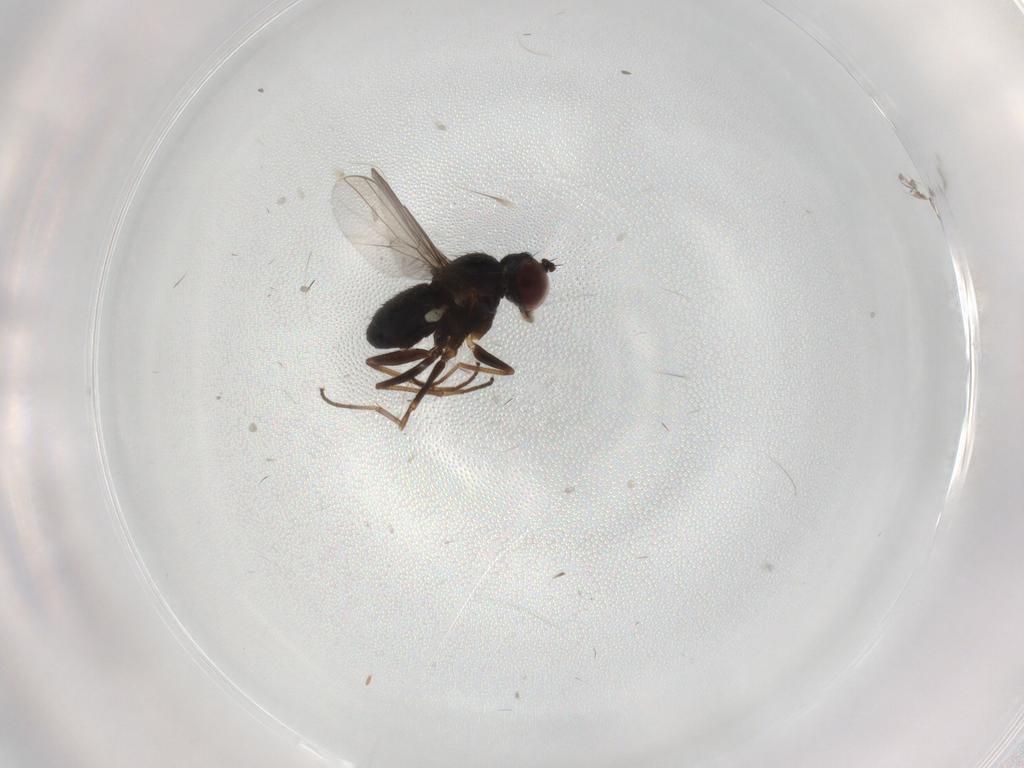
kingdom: Animalia
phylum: Arthropoda
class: Insecta
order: Diptera
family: Dolichopodidae
